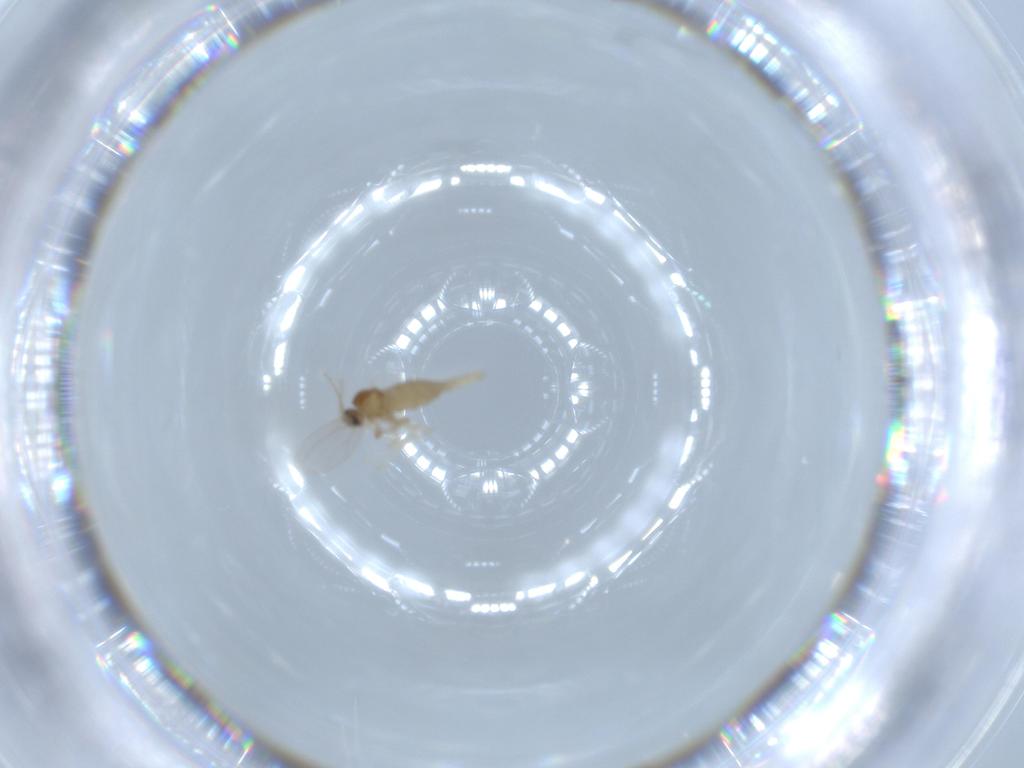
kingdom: Animalia
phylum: Arthropoda
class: Insecta
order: Diptera
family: Cecidomyiidae
